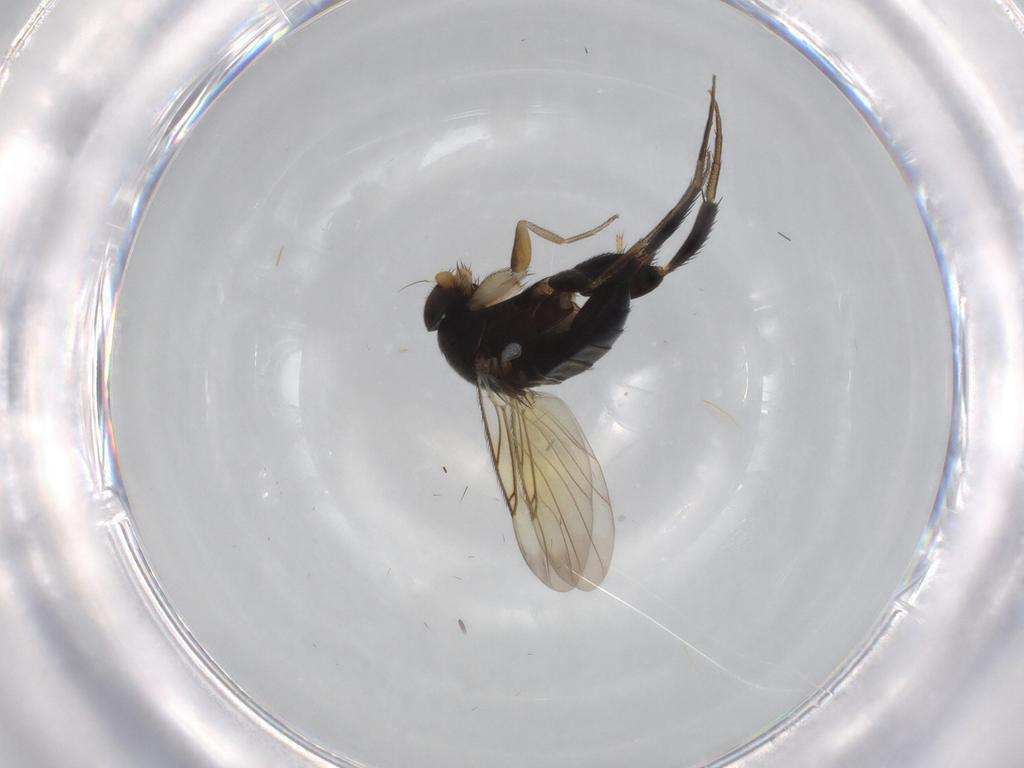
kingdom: Animalia
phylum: Arthropoda
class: Insecta
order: Diptera
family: Phoridae
